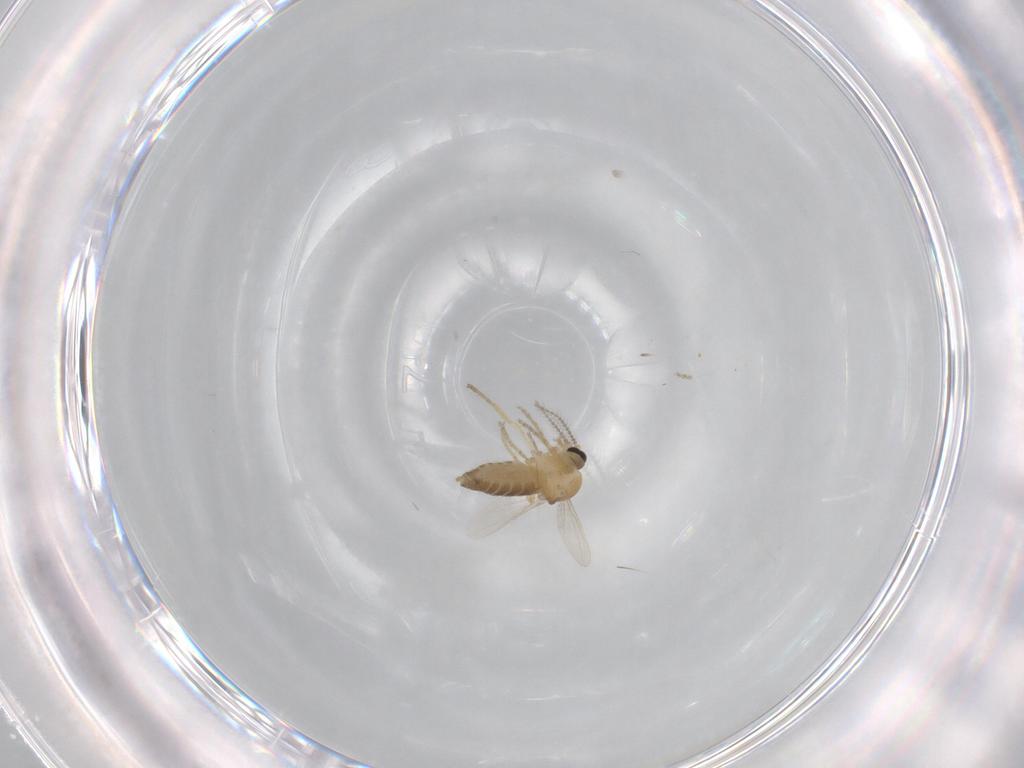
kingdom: Animalia
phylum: Arthropoda
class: Insecta
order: Diptera
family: Ceratopogonidae
